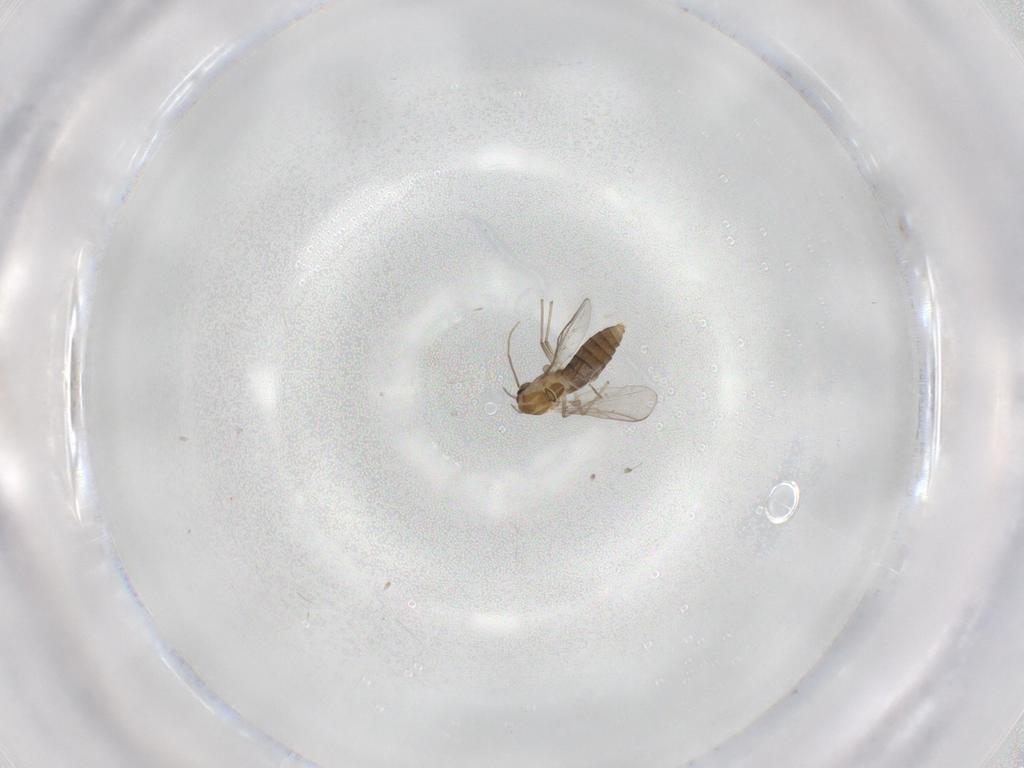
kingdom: Animalia
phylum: Arthropoda
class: Insecta
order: Diptera
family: Chironomidae
